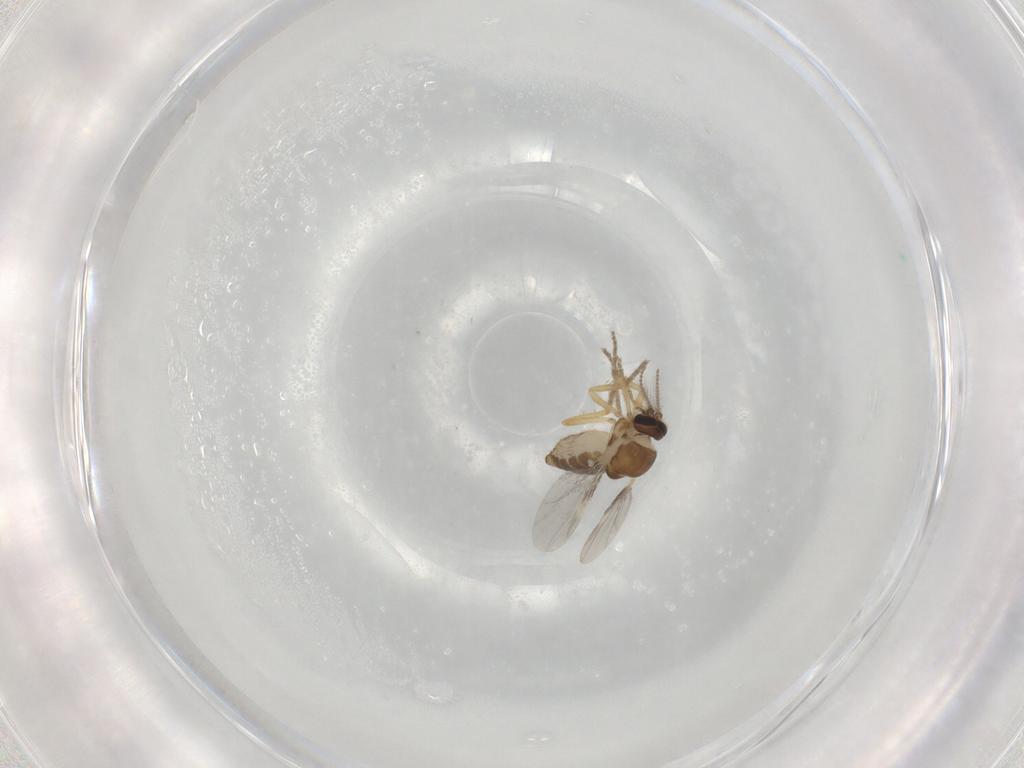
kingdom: Animalia
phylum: Arthropoda
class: Insecta
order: Diptera
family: Ceratopogonidae
